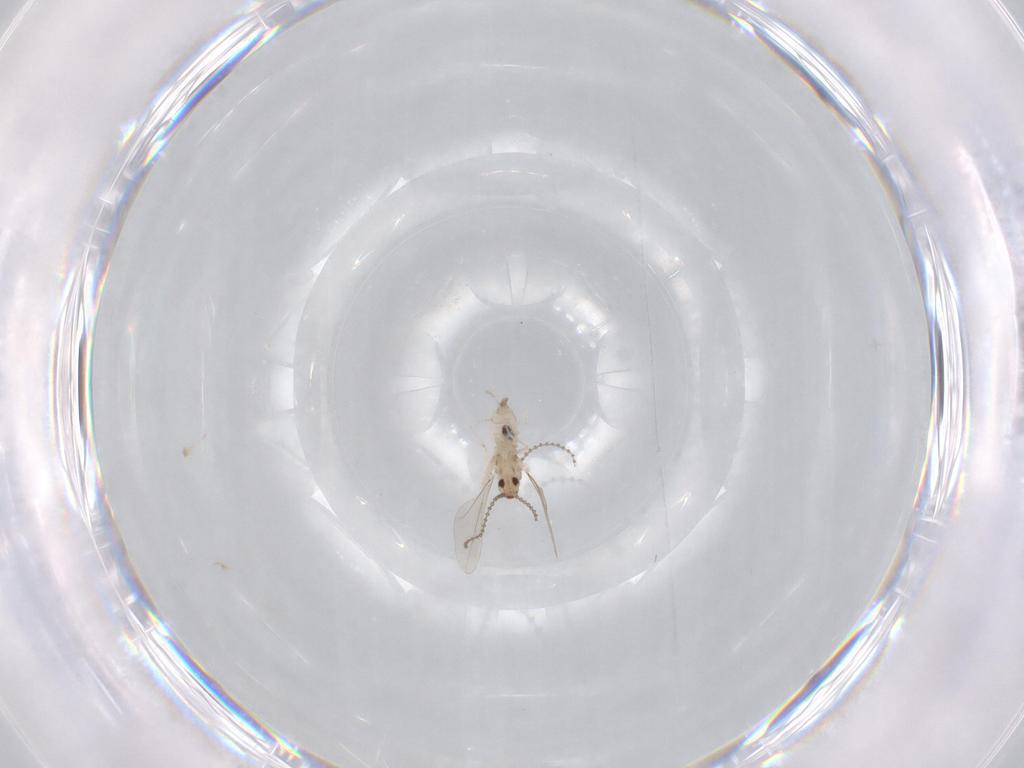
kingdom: Animalia
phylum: Arthropoda
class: Insecta
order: Diptera
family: Cecidomyiidae
